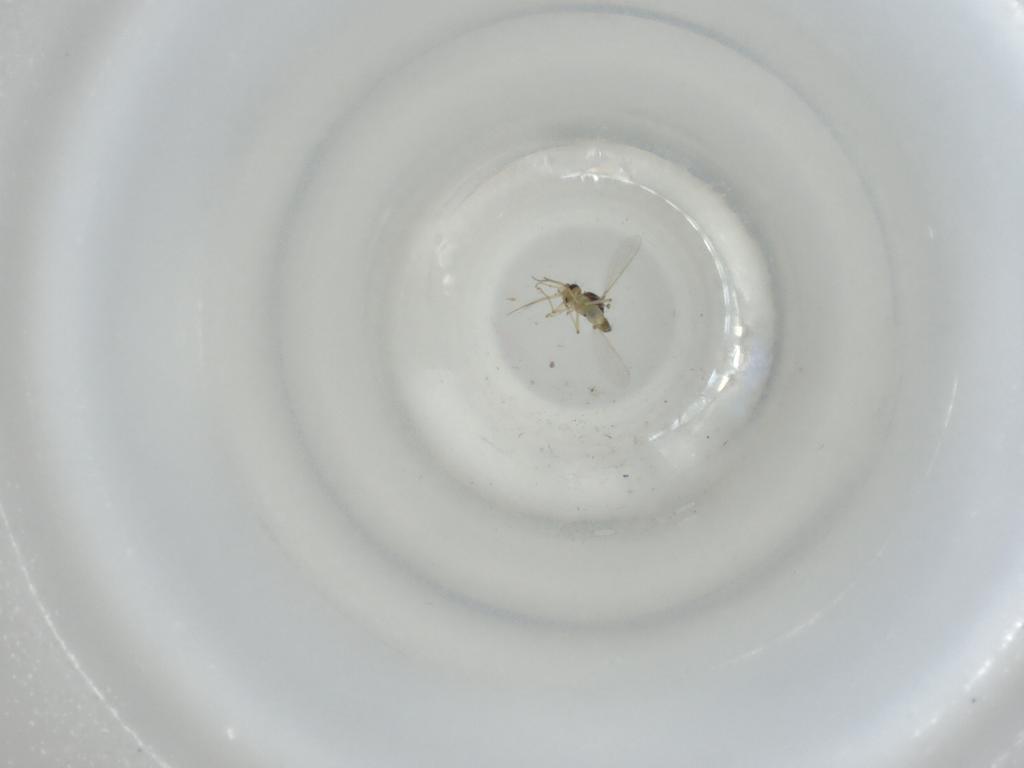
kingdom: Animalia
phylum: Arthropoda
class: Insecta
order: Diptera
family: Ceratopogonidae
